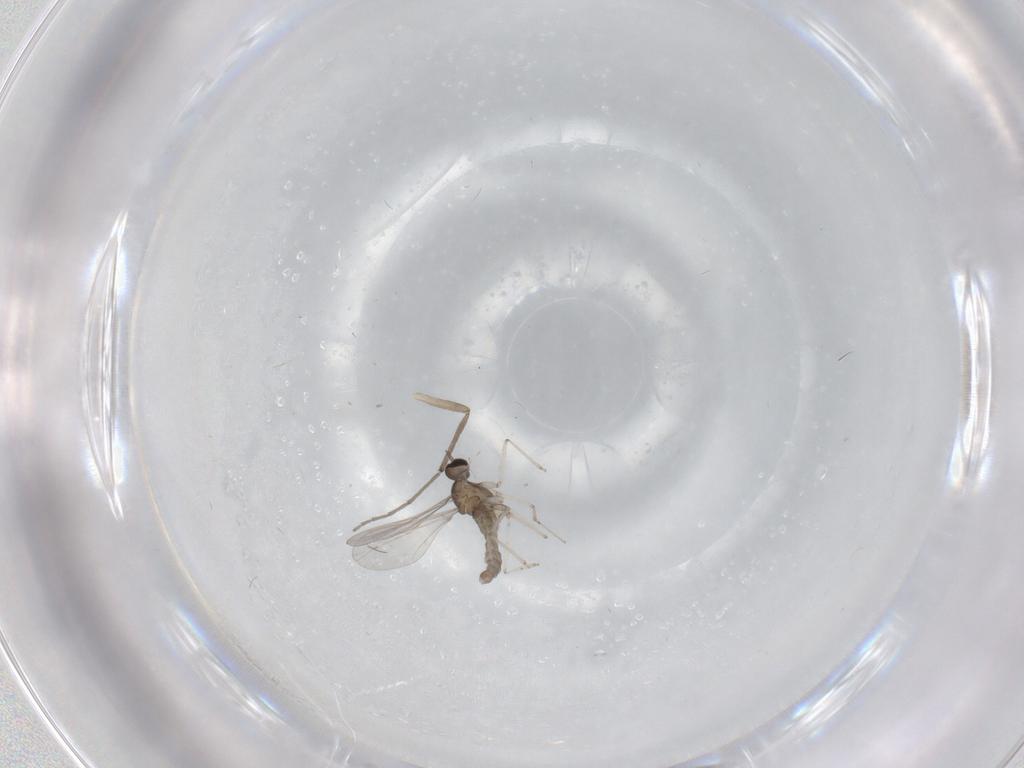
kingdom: Animalia
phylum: Arthropoda
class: Insecta
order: Diptera
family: Cecidomyiidae
